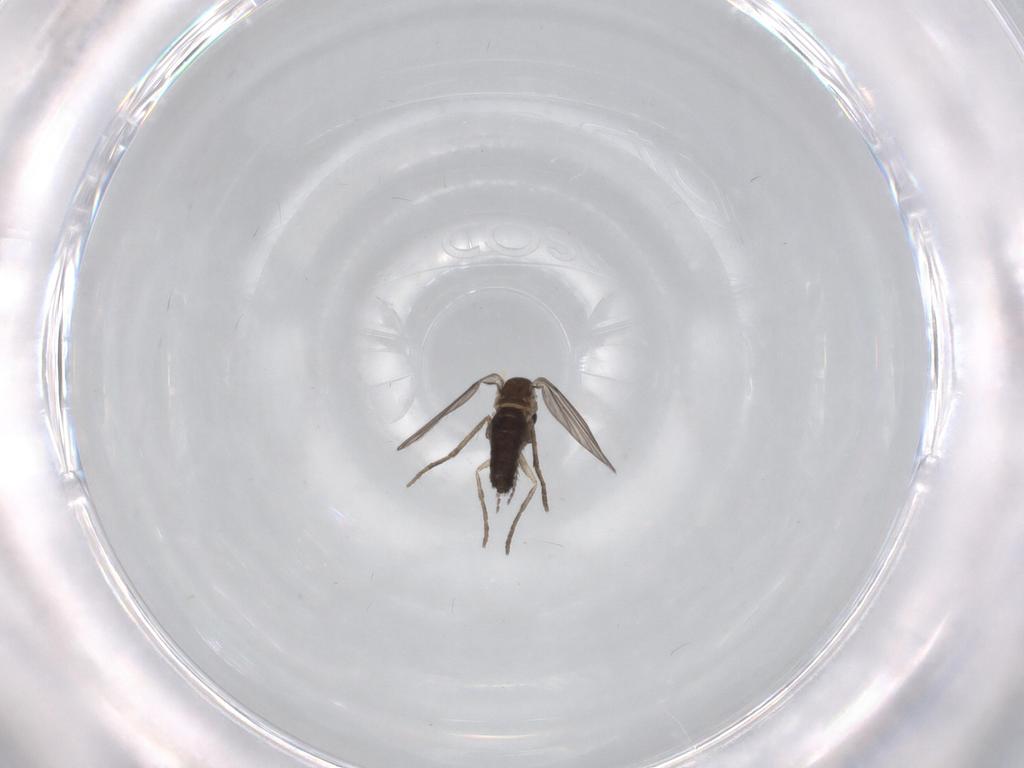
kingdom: Animalia
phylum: Arthropoda
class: Insecta
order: Diptera
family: Psychodidae
